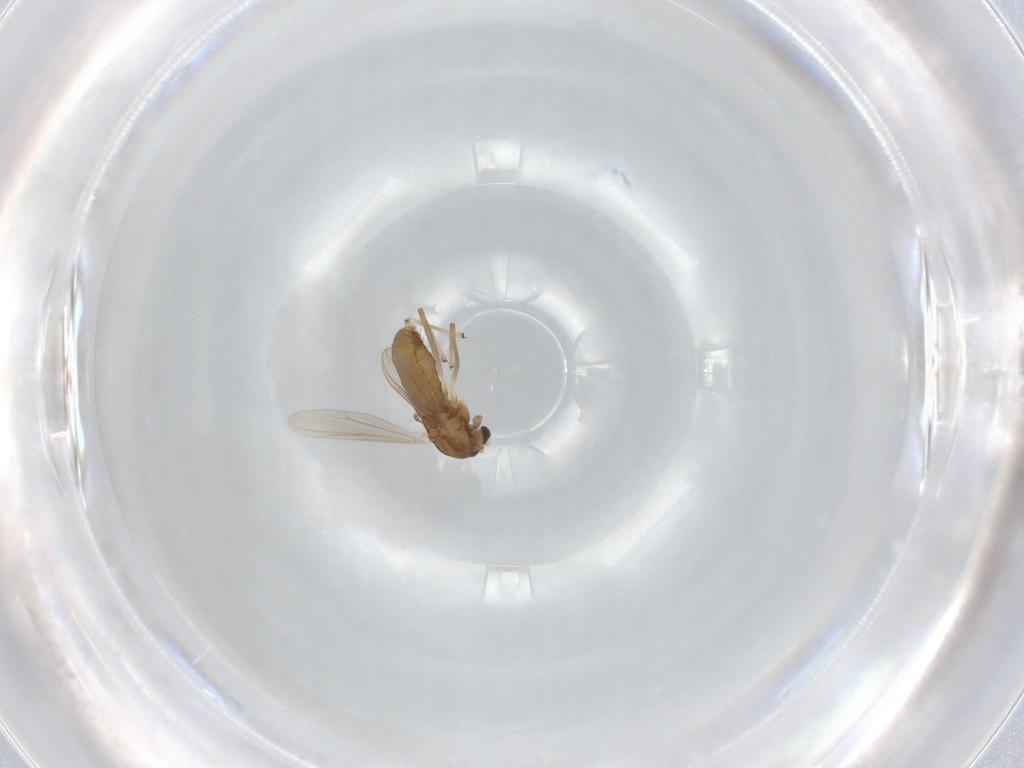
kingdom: Animalia
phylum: Arthropoda
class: Insecta
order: Diptera
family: Chironomidae
